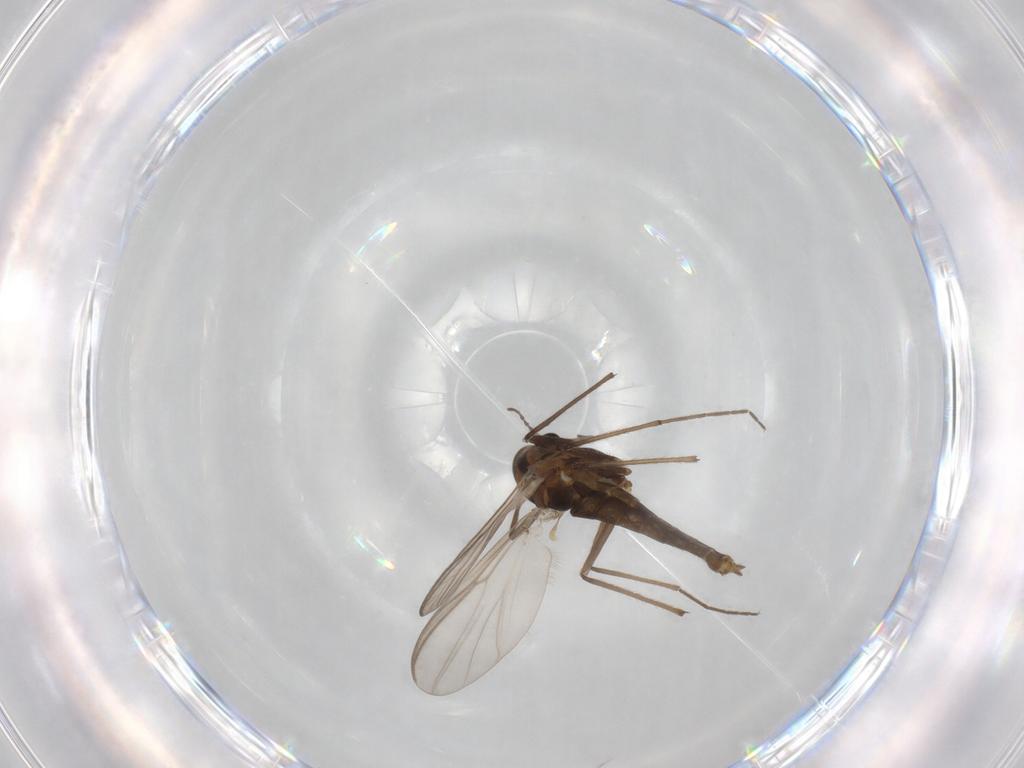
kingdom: Animalia
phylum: Arthropoda
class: Insecta
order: Diptera
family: Chironomidae
